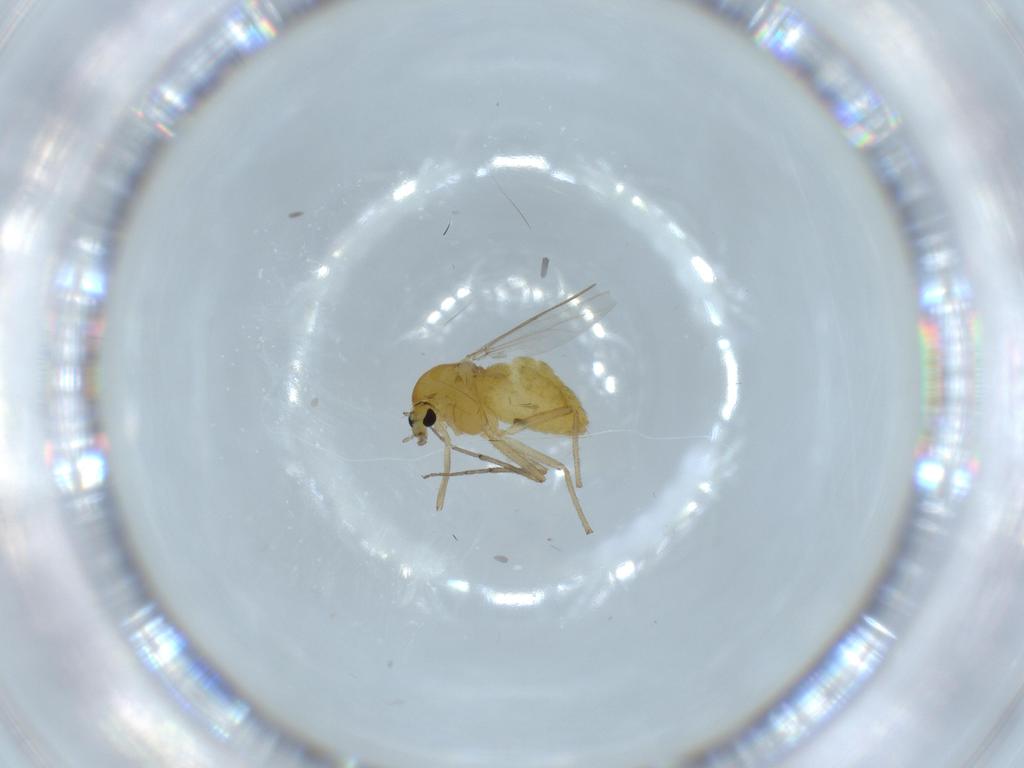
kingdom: Animalia
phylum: Arthropoda
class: Insecta
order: Diptera
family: Chironomidae
